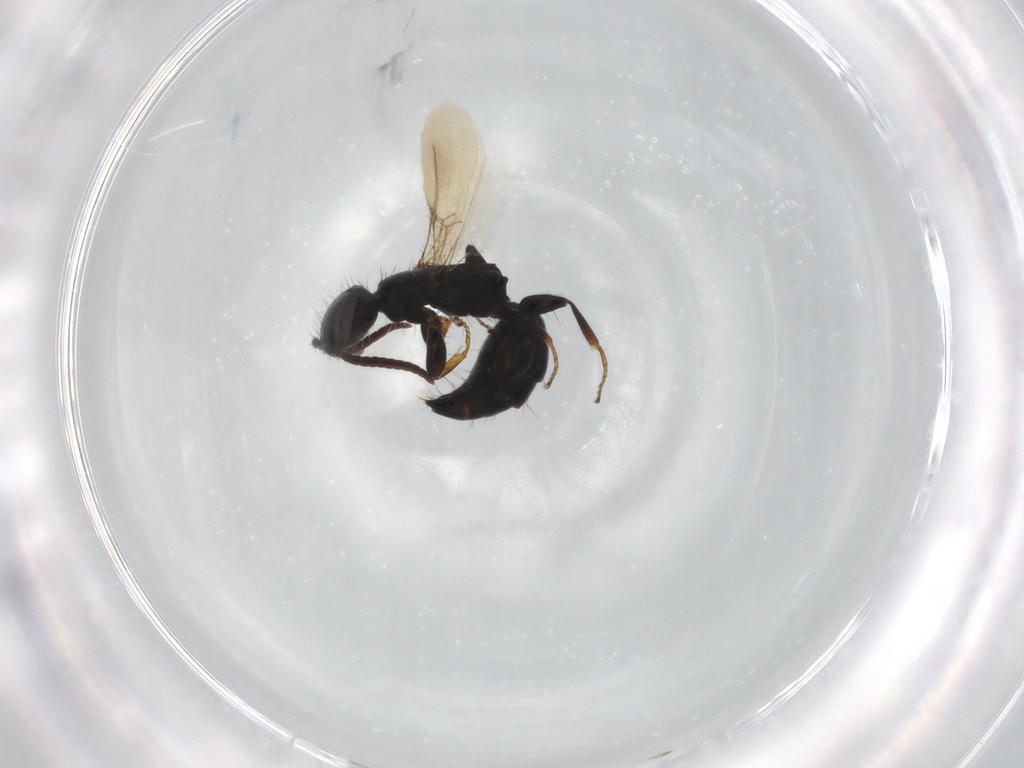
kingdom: Animalia
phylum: Arthropoda
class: Insecta
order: Hymenoptera
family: Bethylidae
